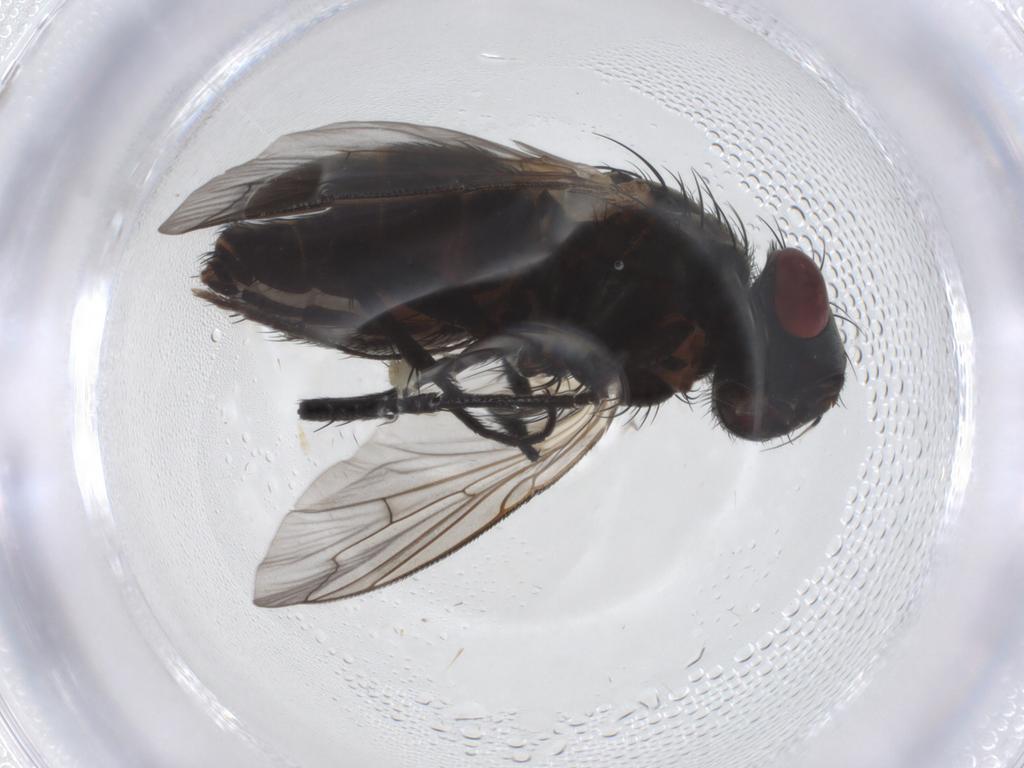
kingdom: Animalia
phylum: Arthropoda
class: Insecta
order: Diptera
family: Sarcophagidae
